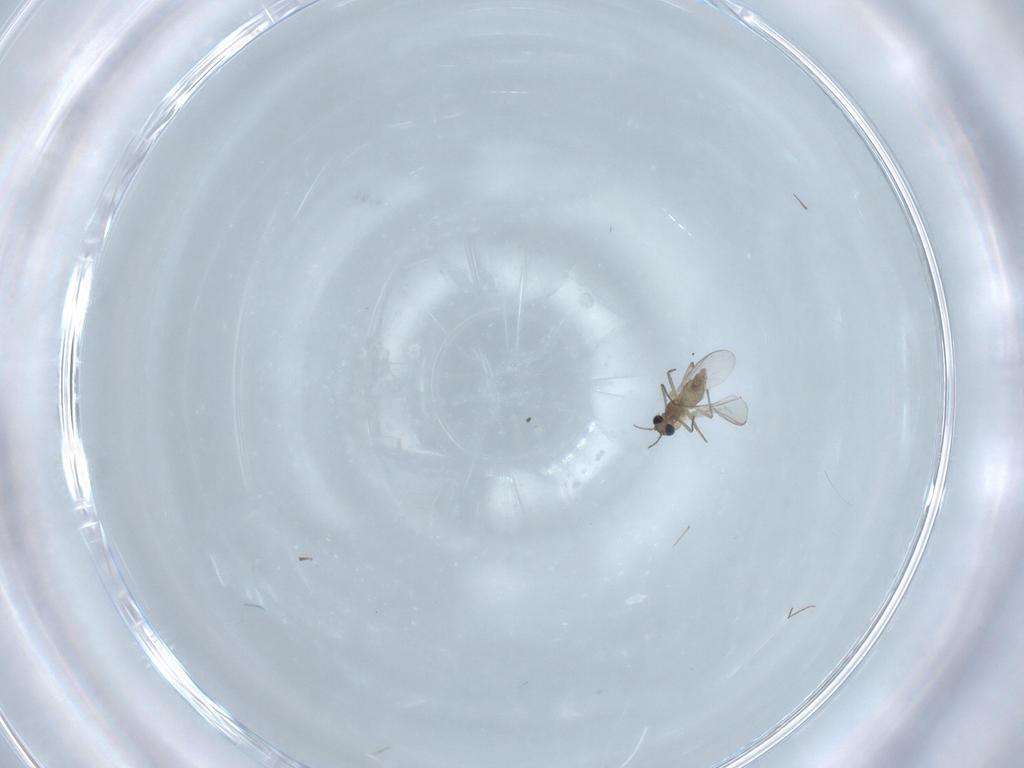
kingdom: Animalia
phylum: Arthropoda
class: Insecta
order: Diptera
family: Chironomidae
